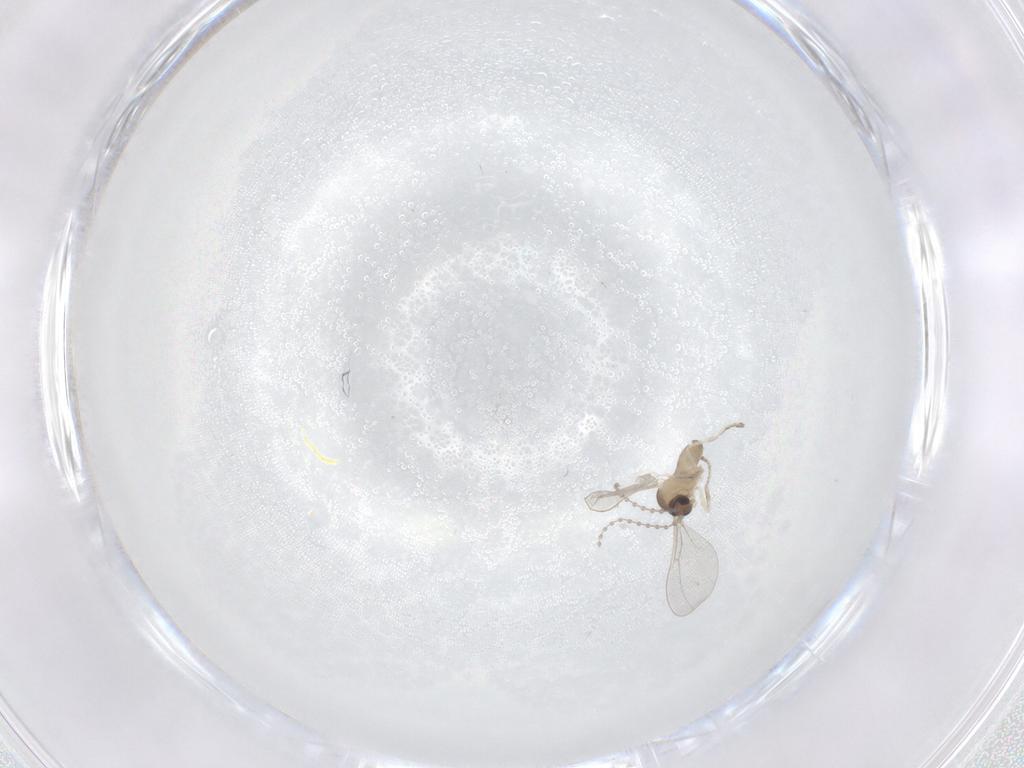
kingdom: Animalia
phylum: Arthropoda
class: Insecta
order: Diptera
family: Cecidomyiidae
